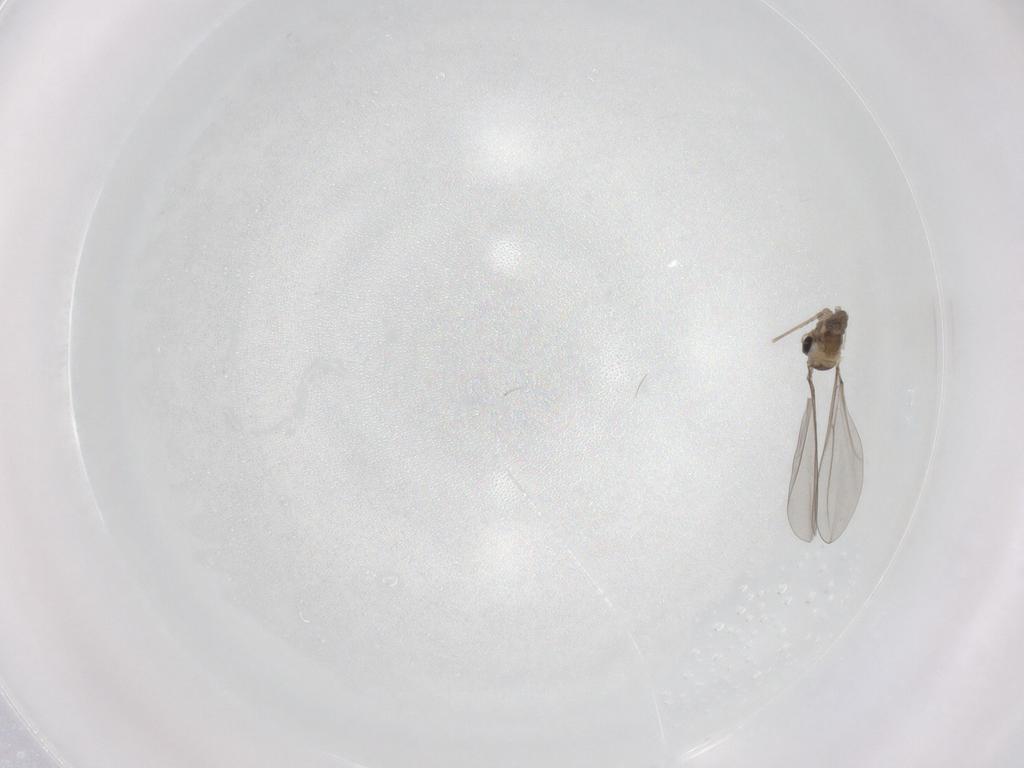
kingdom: Animalia
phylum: Arthropoda
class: Insecta
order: Diptera
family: Cecidomyiidae
